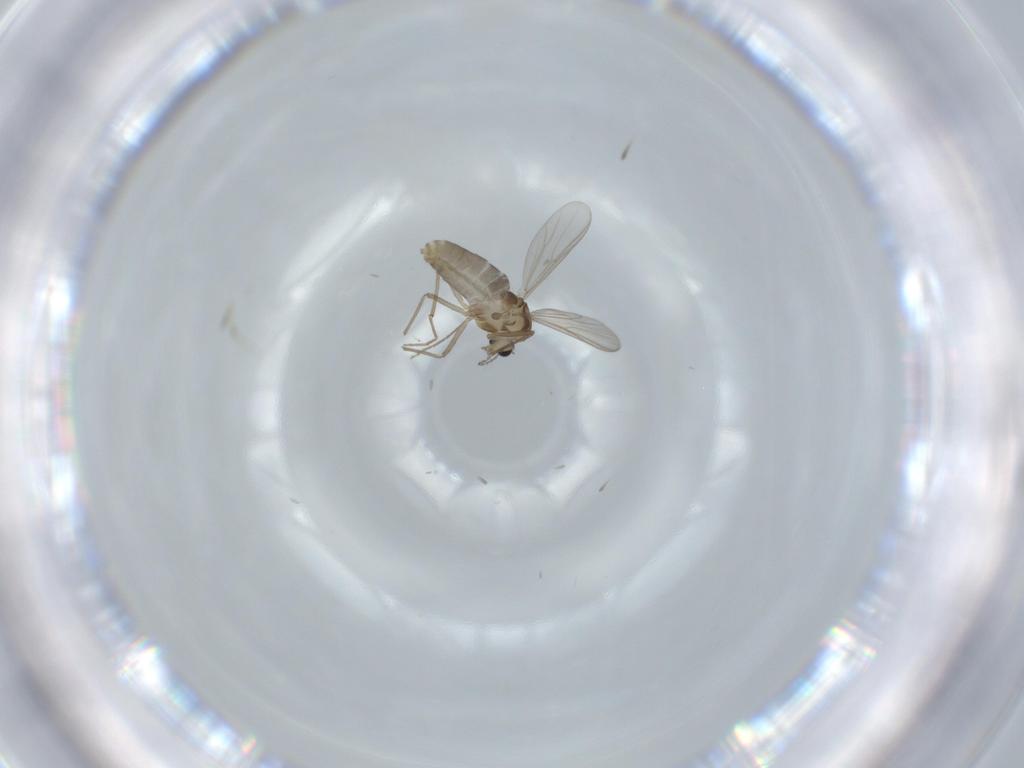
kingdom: Animalia
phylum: Arthropoda
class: Insecta
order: Diptera
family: Chironomidae
